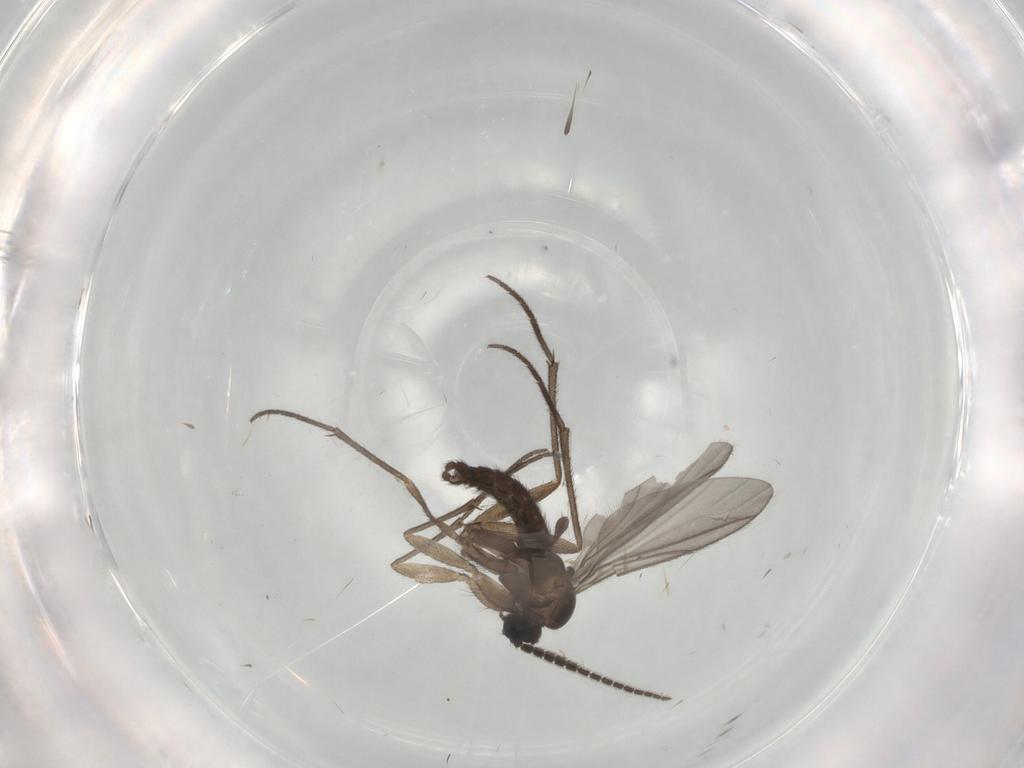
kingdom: Animalia
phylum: Arthropoda
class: Insecta
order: Diptera
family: Sciaridae
